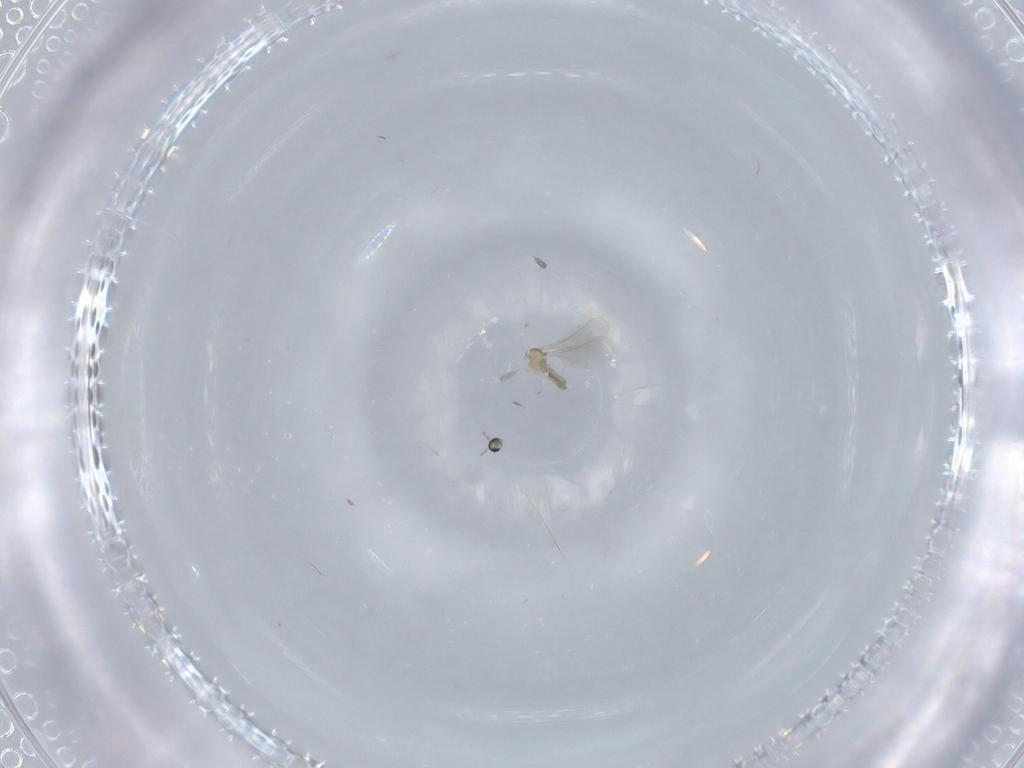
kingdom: Animalia
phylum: Arthropoda
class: Insecta
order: Diptera
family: Cecidomyiidae
